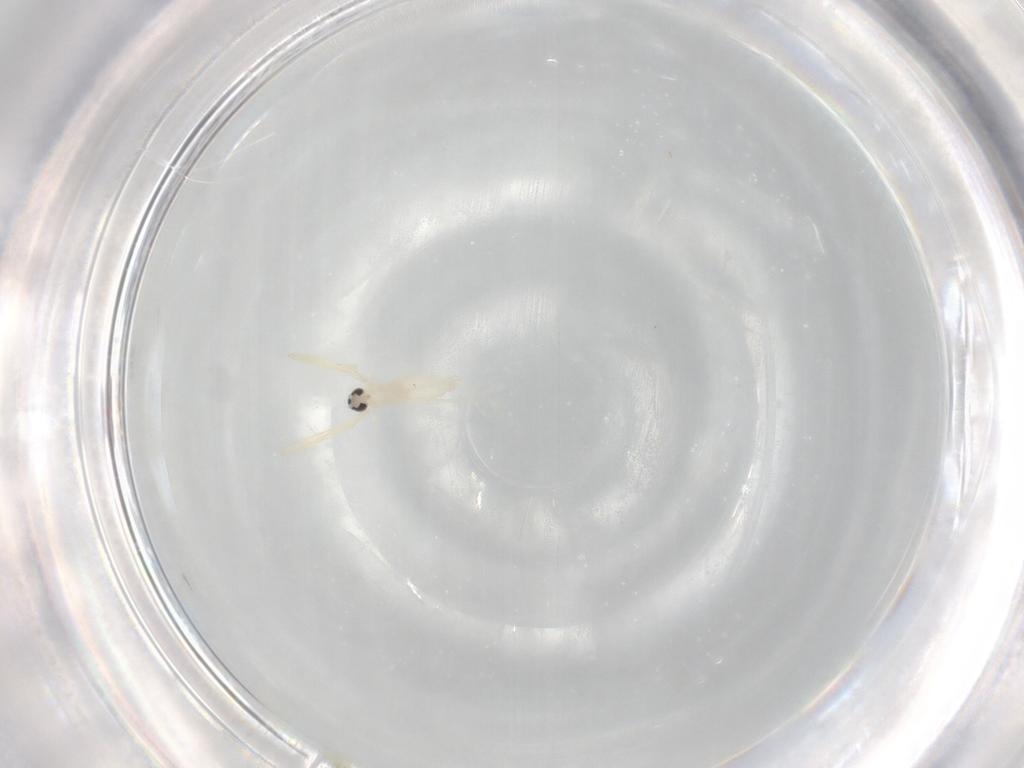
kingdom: Animalia
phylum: Arthropoda
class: Insecta
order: Diptera
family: Cecidomyiidae
